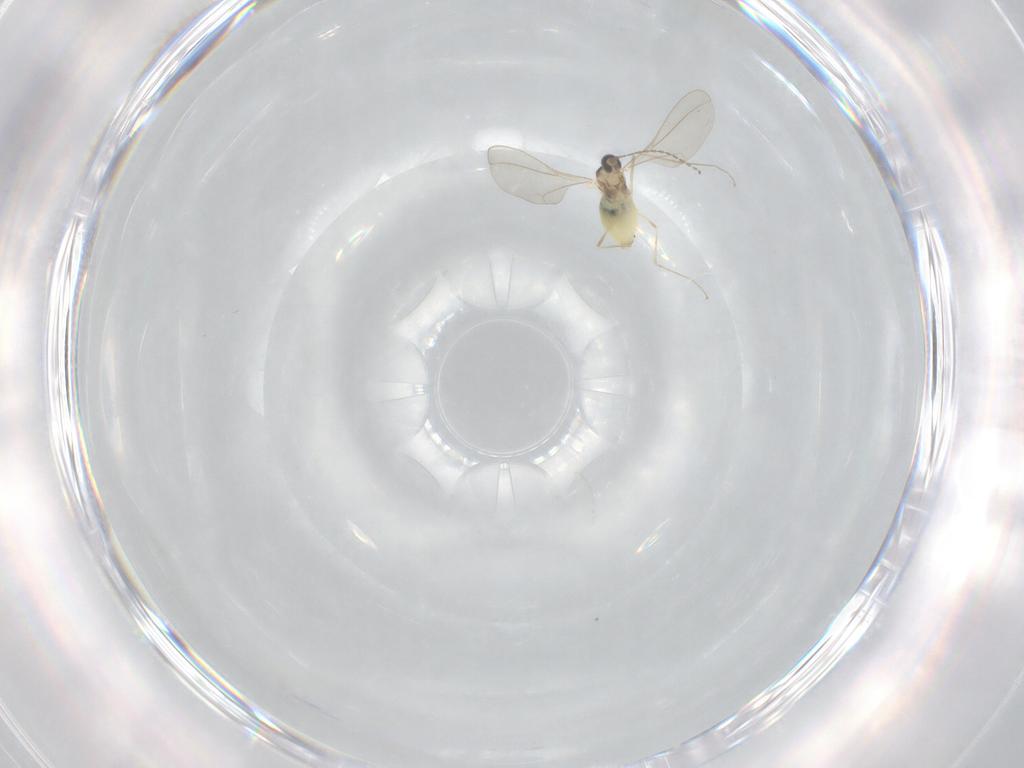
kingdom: Animalia
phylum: Arthropoda
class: Insecta
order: Diptera
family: Cecidomyiidae
